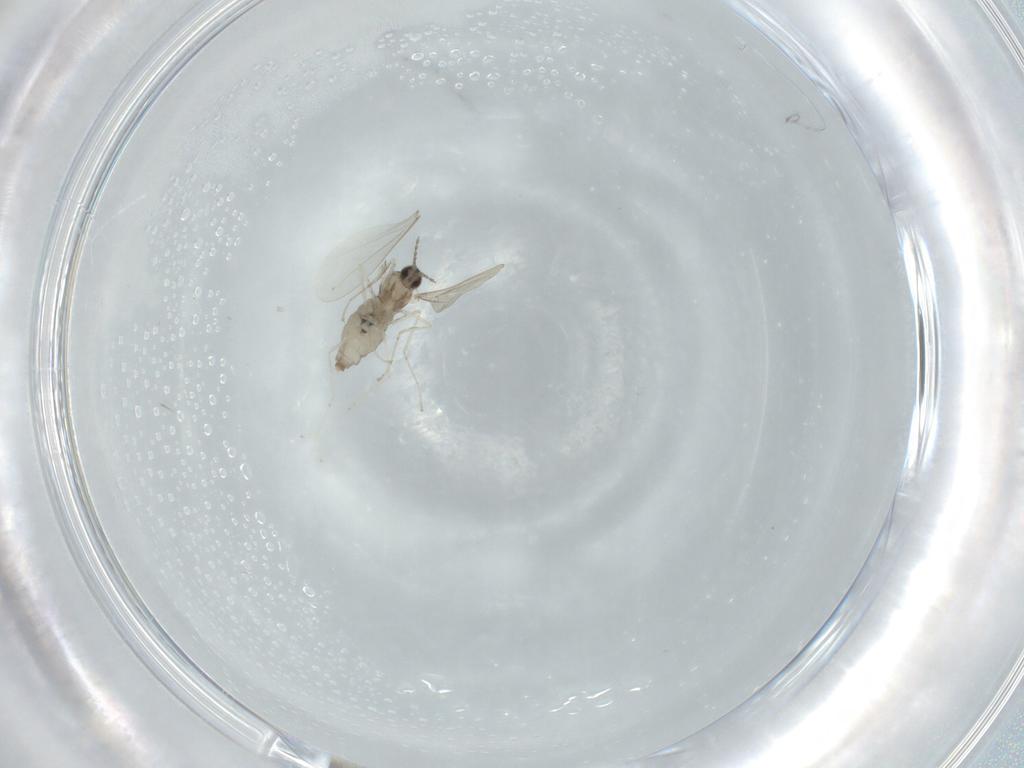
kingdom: Animalia
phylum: Arthropoda
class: Insecta
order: Diptera
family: Cecidomyiidae
